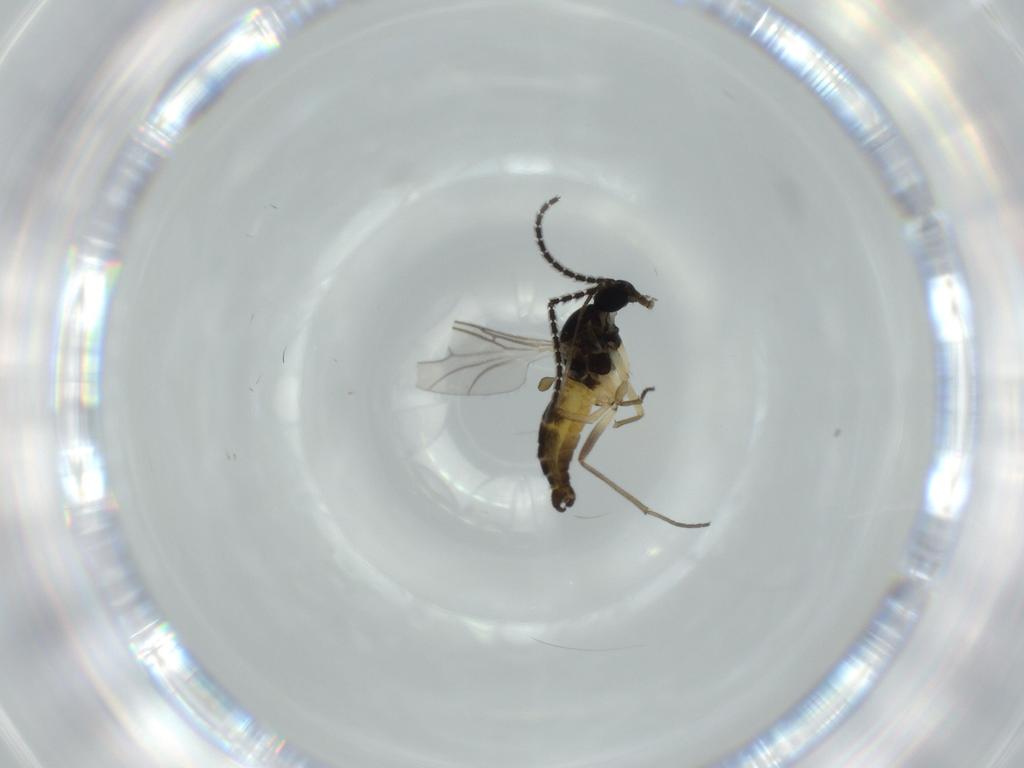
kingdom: Animalia
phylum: Arthropoda
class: Insecta
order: Diptera
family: Sciaridae
